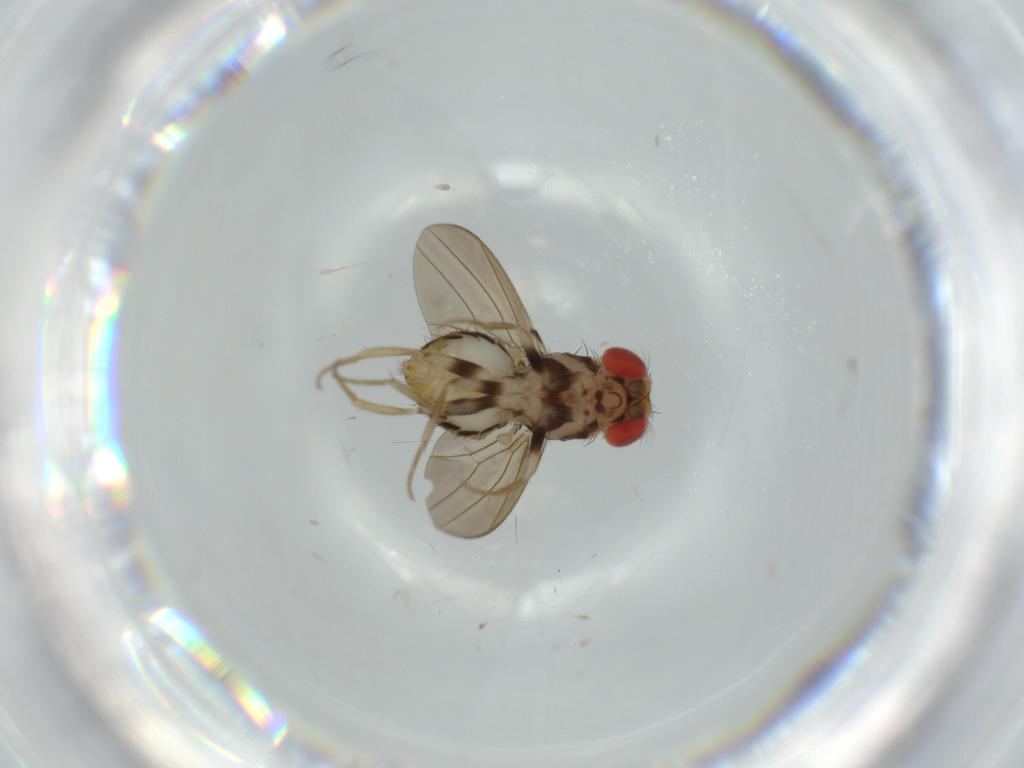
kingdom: Animalia
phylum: Arthropoda
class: Insecta
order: Diptera
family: Drosophilidae
